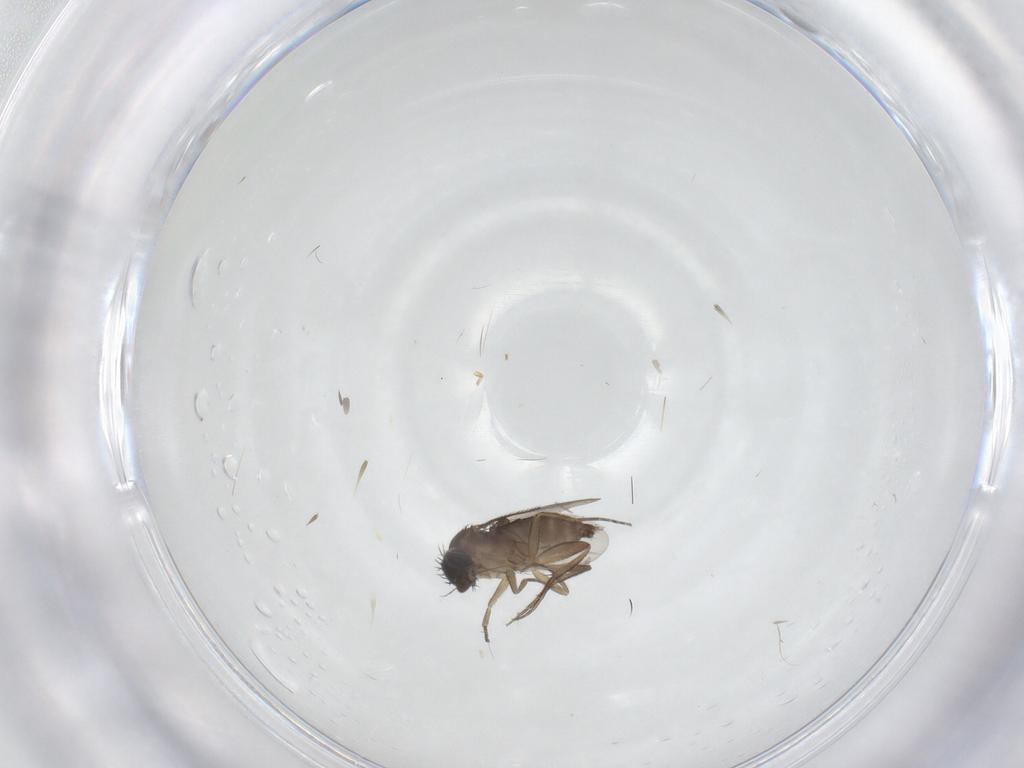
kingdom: Animalia
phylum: Arthropoda
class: Insecta
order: Diptera
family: Phoridae
